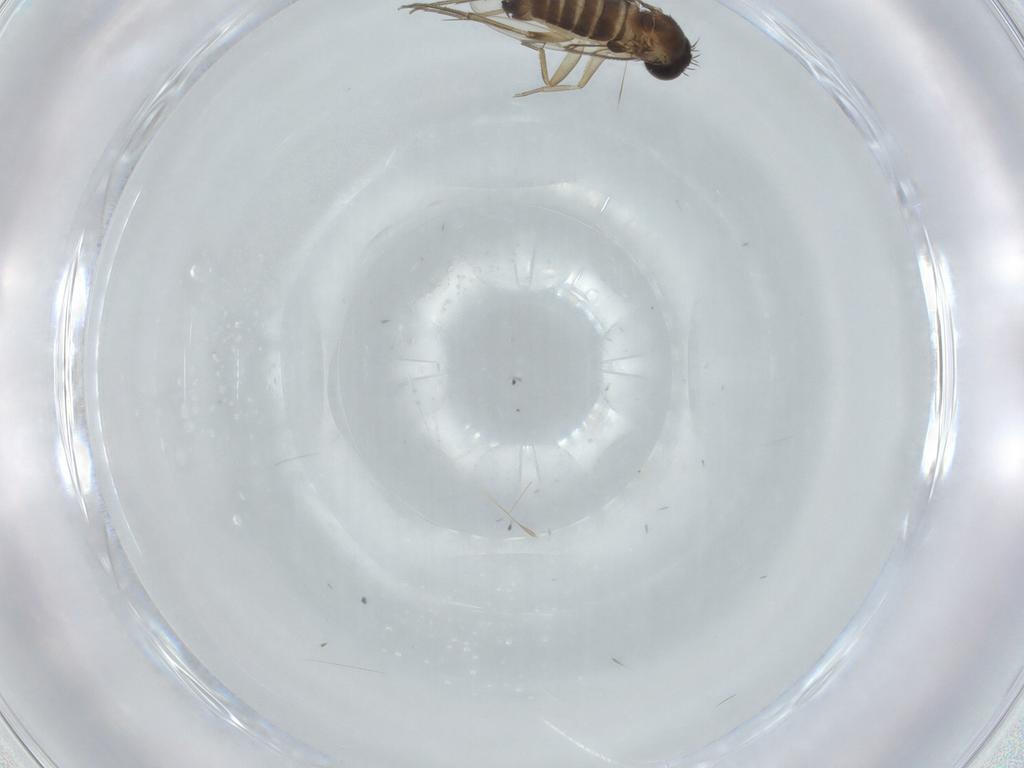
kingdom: Animalia
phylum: Arthropoda
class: Insecta
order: Diptera
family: Phoridae
